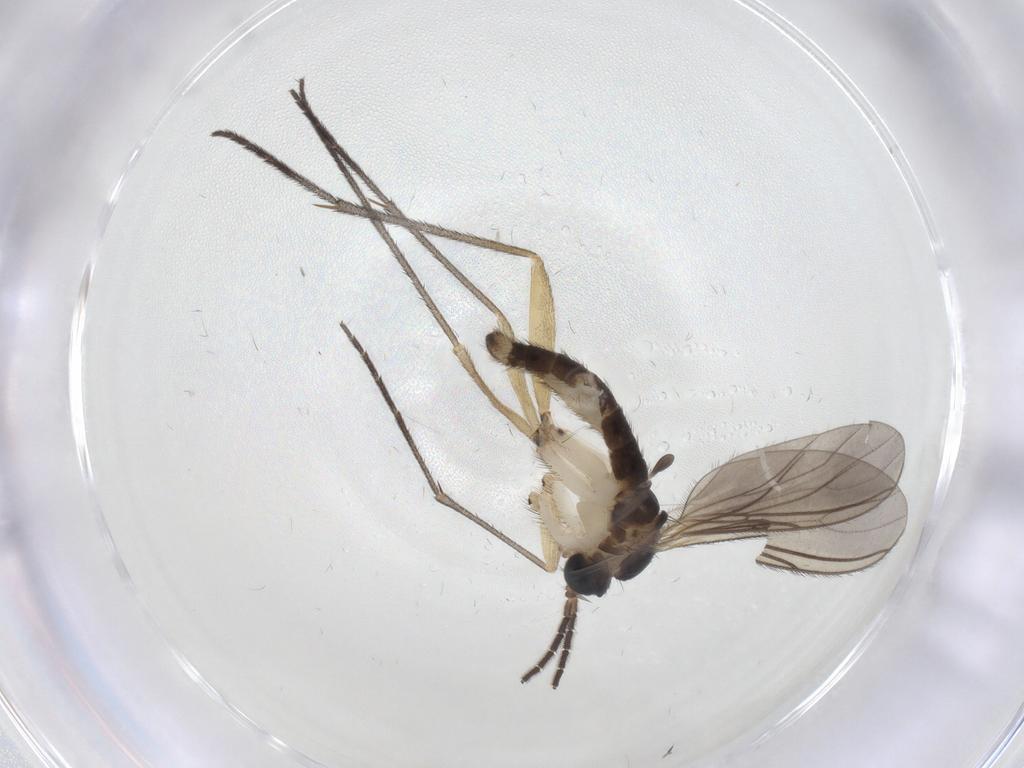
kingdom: Animalia
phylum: Arthropoda
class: Insecta
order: Diptera
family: Sciaridae
